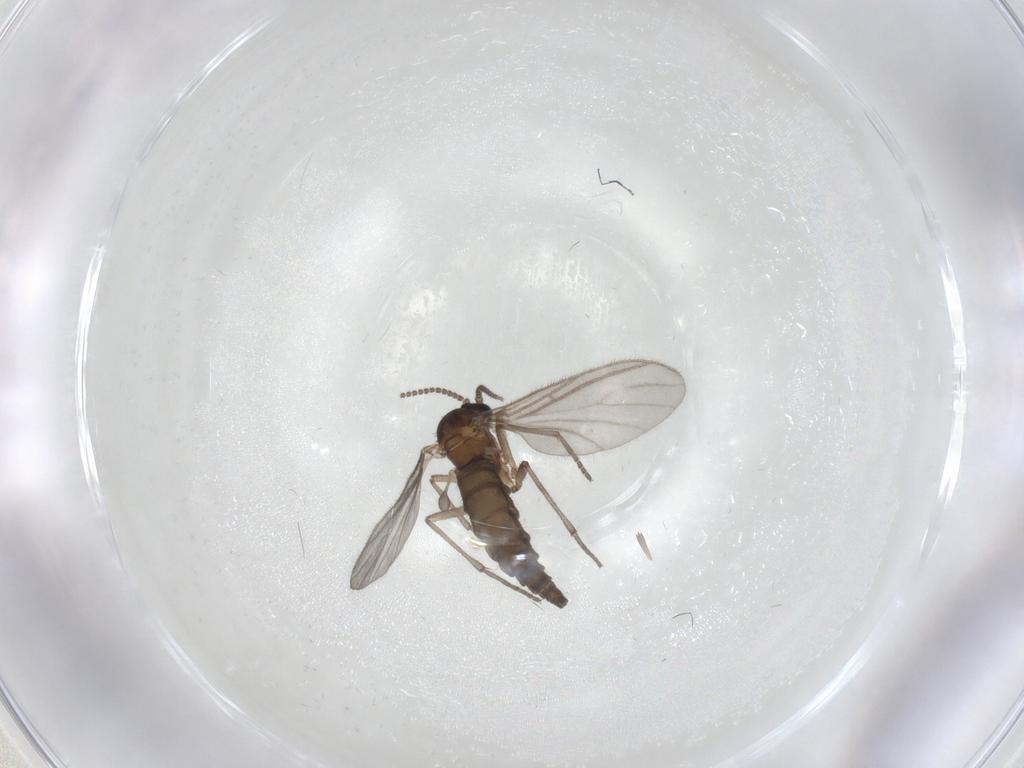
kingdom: Animalia
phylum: Arthropoda
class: Insecta
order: Diptera
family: Sciaridae
